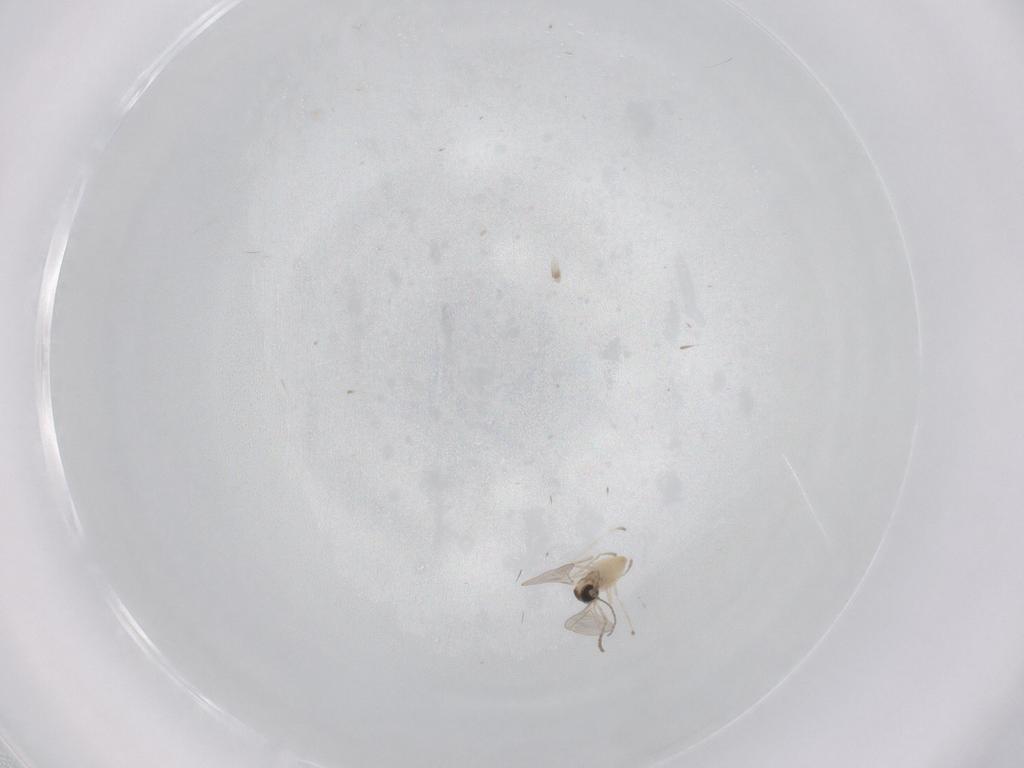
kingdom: Animalia
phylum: Arthropoda
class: Insecta
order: Diptera
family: Cecidomyiidae
